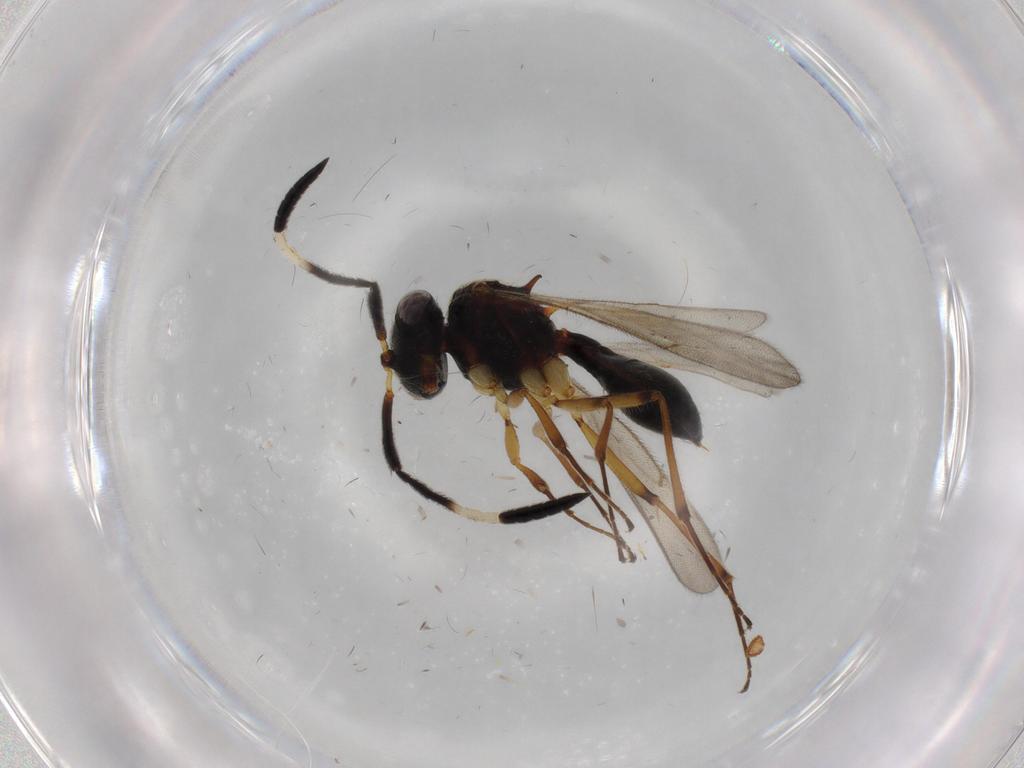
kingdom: Animalia
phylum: Arthropoda
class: Insecta
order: Hymenoptera
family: Scelionidae
